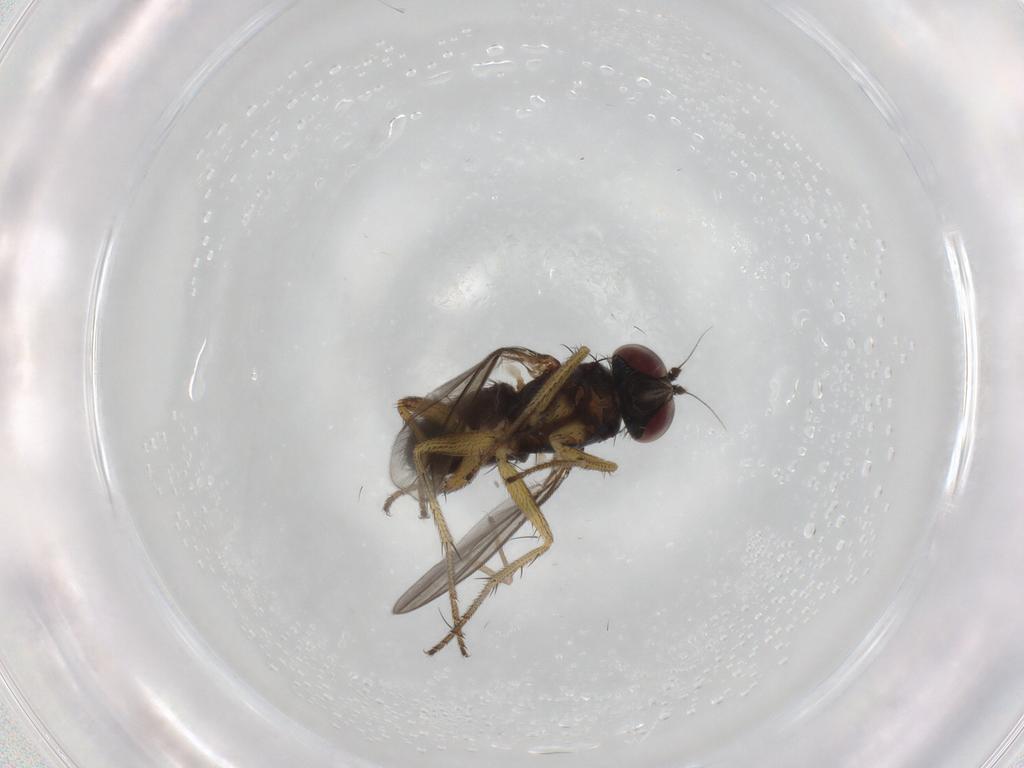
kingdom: Animalia
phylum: Arthropoda
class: Insecta
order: Diptera
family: Dolichopodidae
